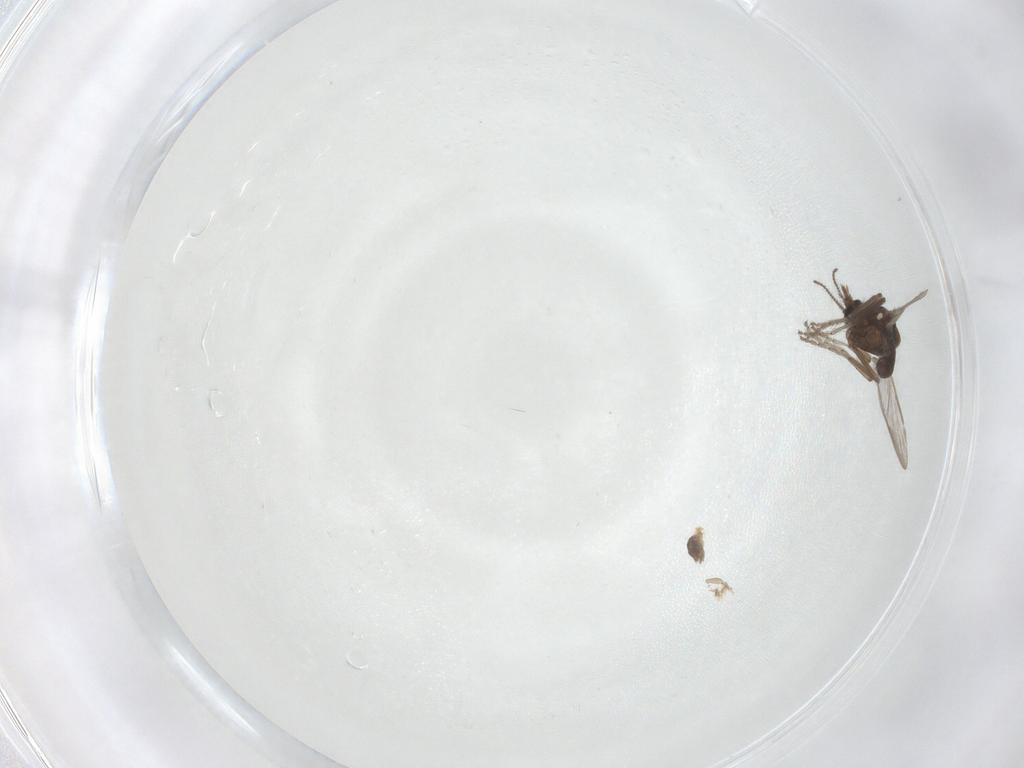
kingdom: Animalia
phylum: Arthropoda
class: Insecta
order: Diptera
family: Ceratopogonidae
